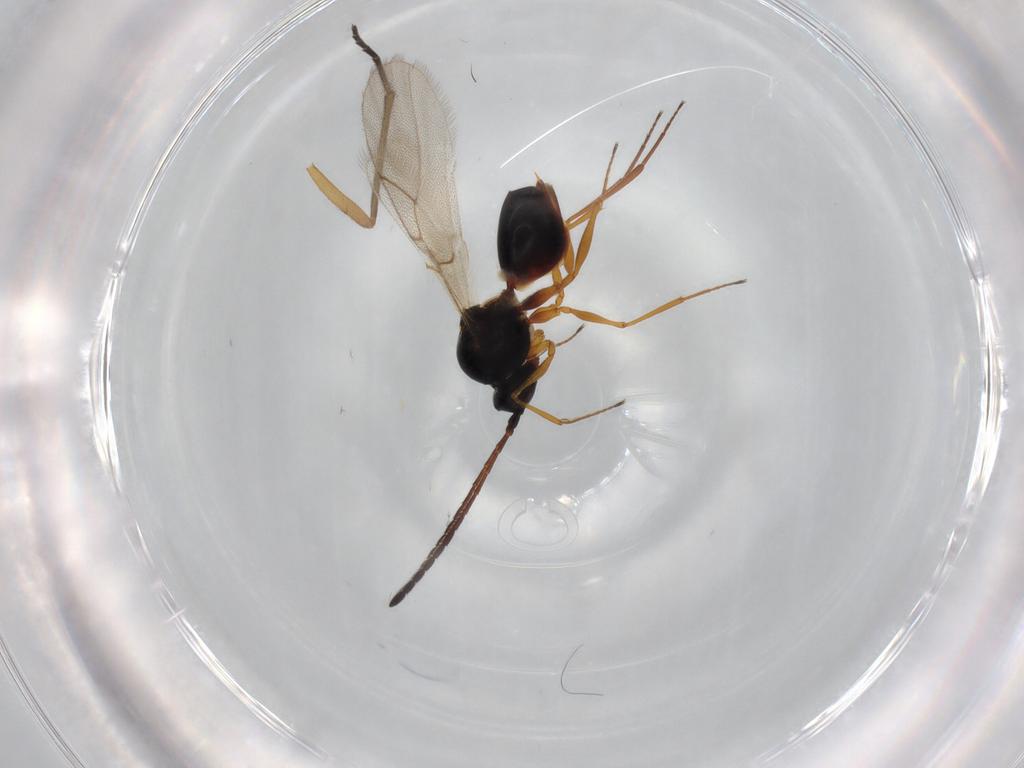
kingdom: Animalia
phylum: Arthropoda
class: Insecta
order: Hymenoptera
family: Figitidae
